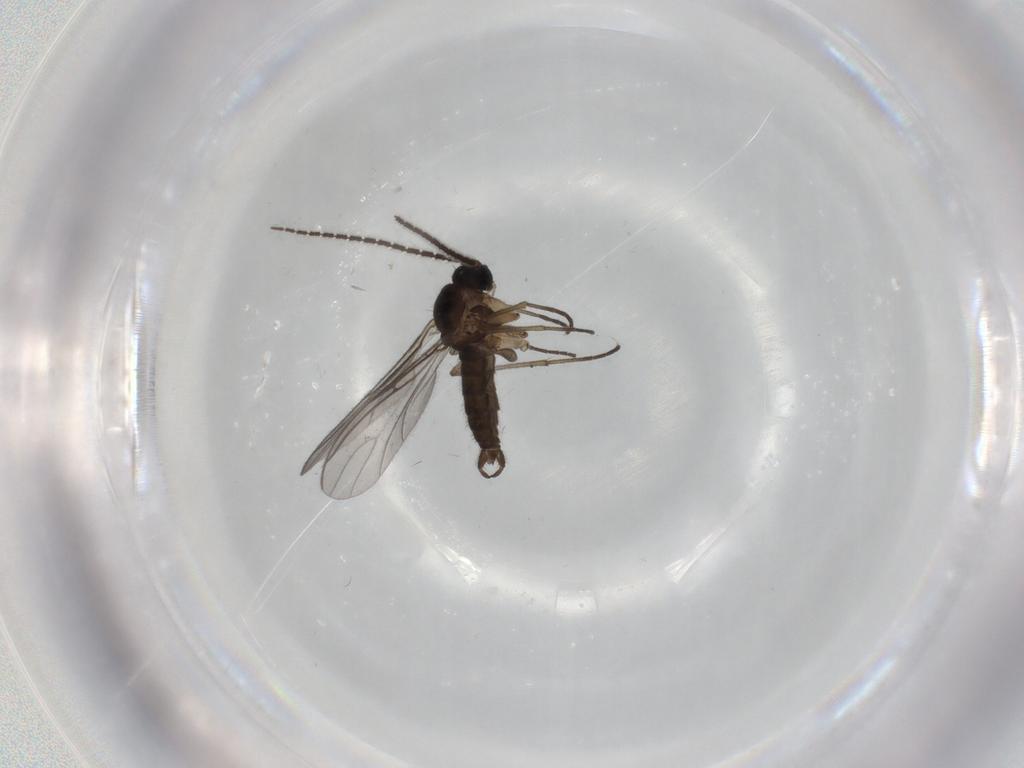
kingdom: Animalia
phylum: Arthropoda
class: Insecta
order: Diptera
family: Sciaridae
